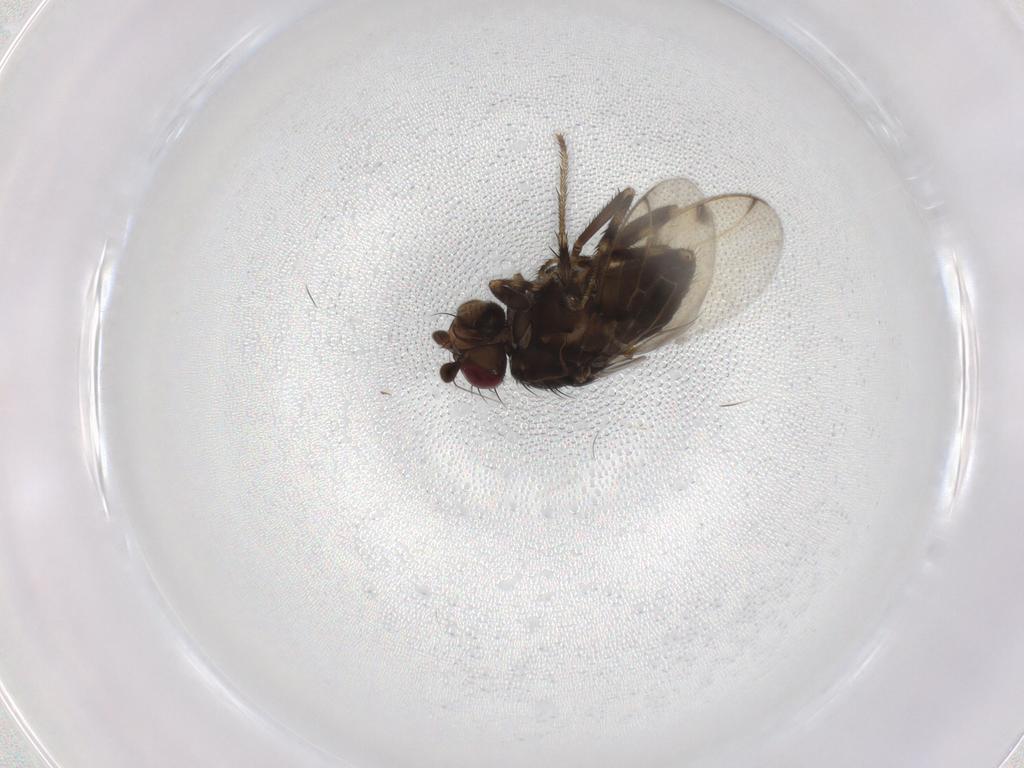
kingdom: Animalia
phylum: Arthropoda
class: Insecta
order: Diptera
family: Sphaeroceridae
